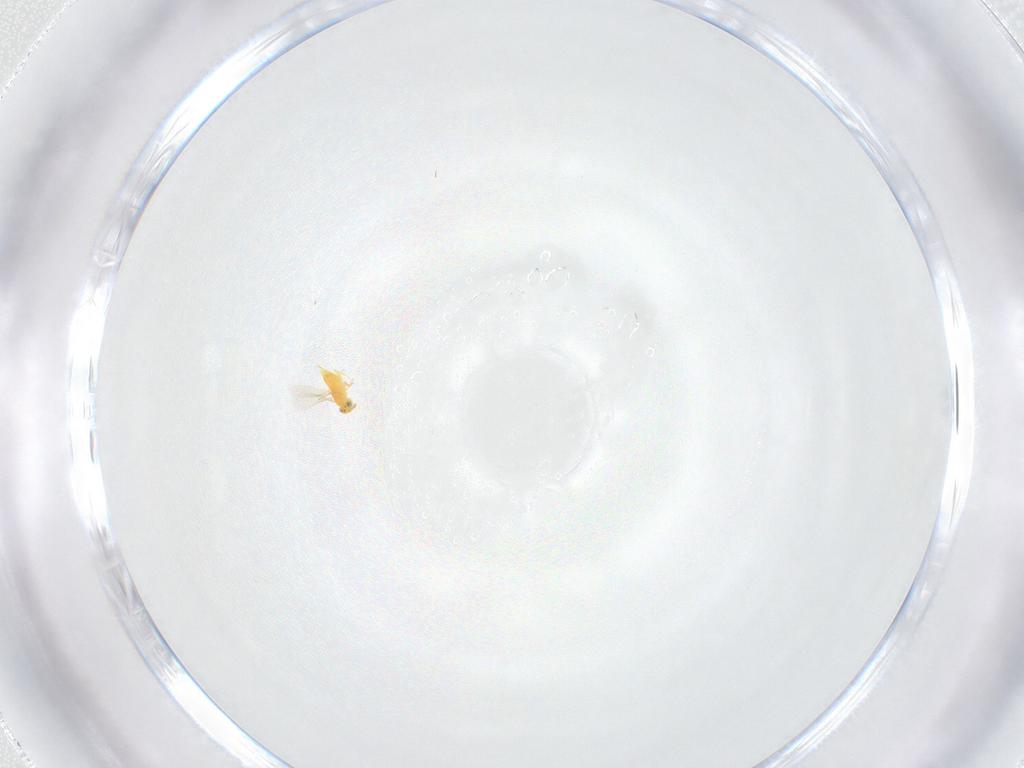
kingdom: Animalia
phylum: Arthropoda
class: Insecta
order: Hymenoptera
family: Aphelinidae
